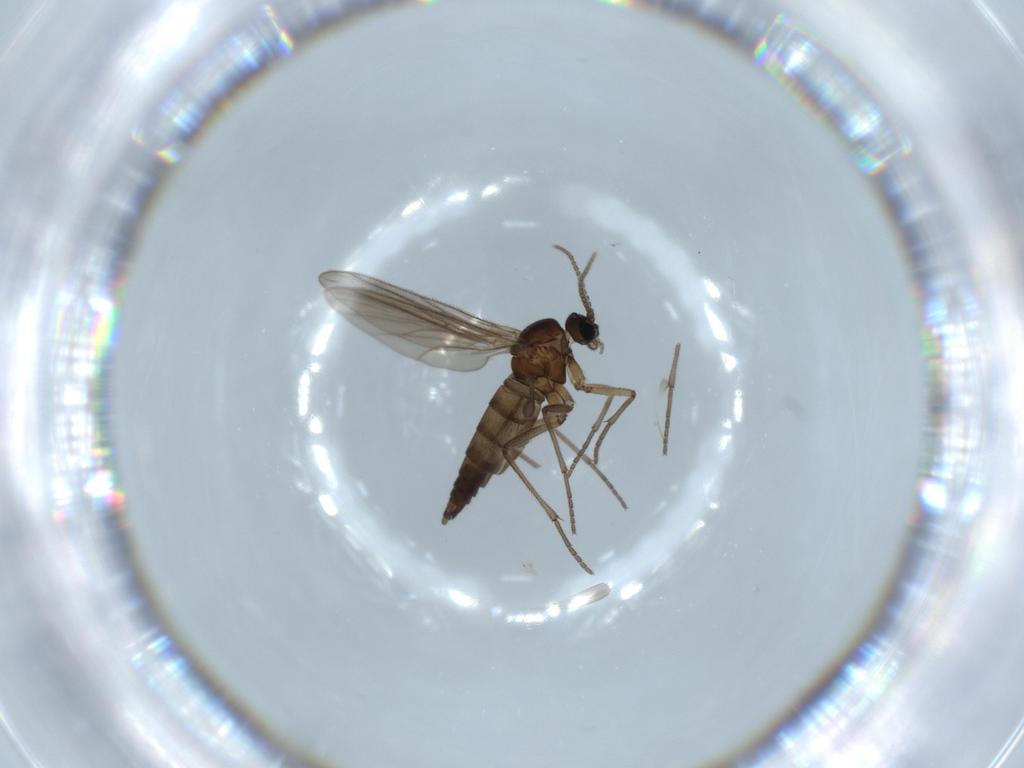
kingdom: Animalia
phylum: Arthropoda
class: Insecta
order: Diptera
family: Sciaridae
